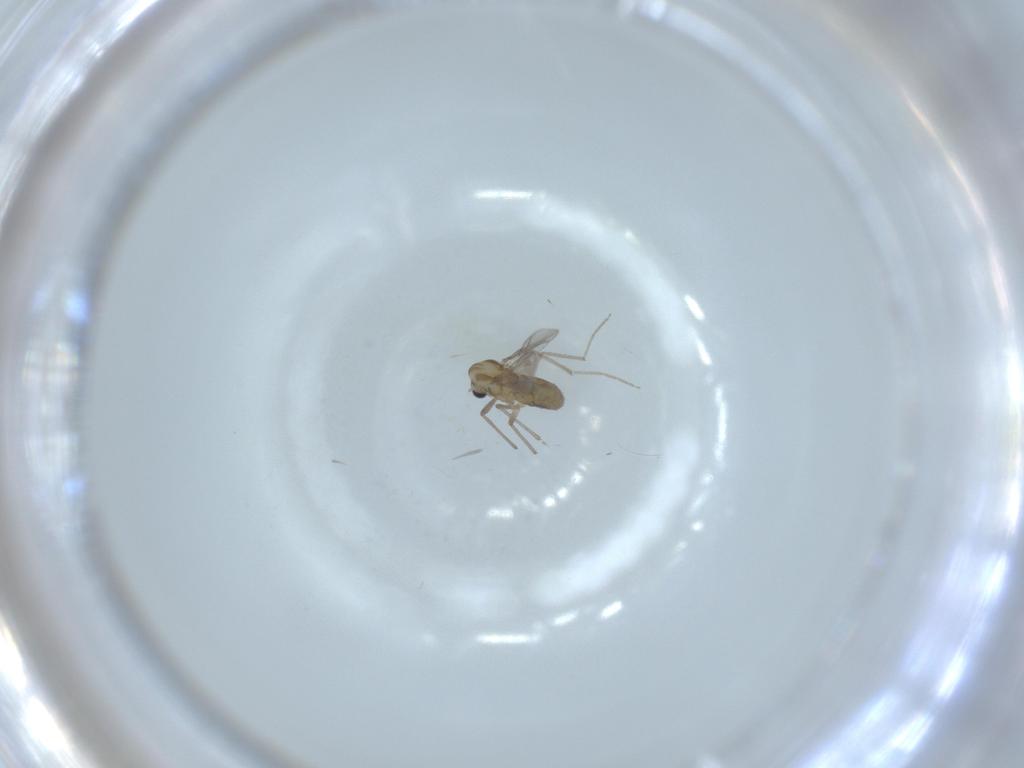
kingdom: Animalia
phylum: Arthropoda
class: Insecta
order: Diptera
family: Chironomidae
